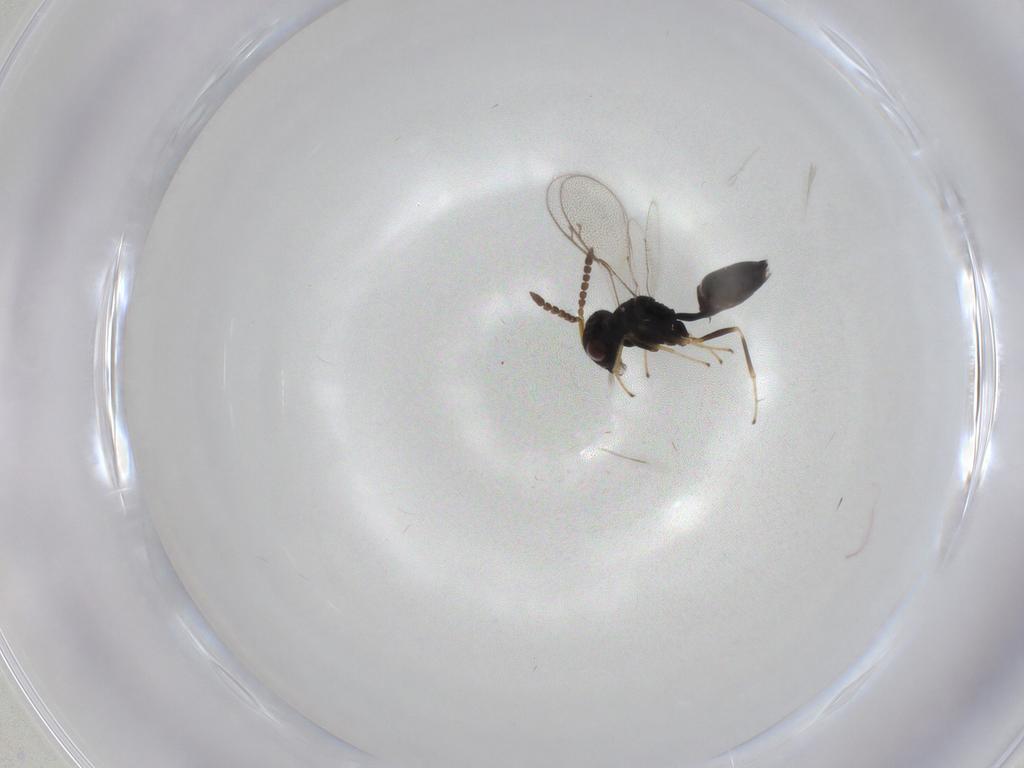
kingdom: Animalia
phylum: Arthropoda
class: Insecta
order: Hymenoptera
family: Pteromalidae
